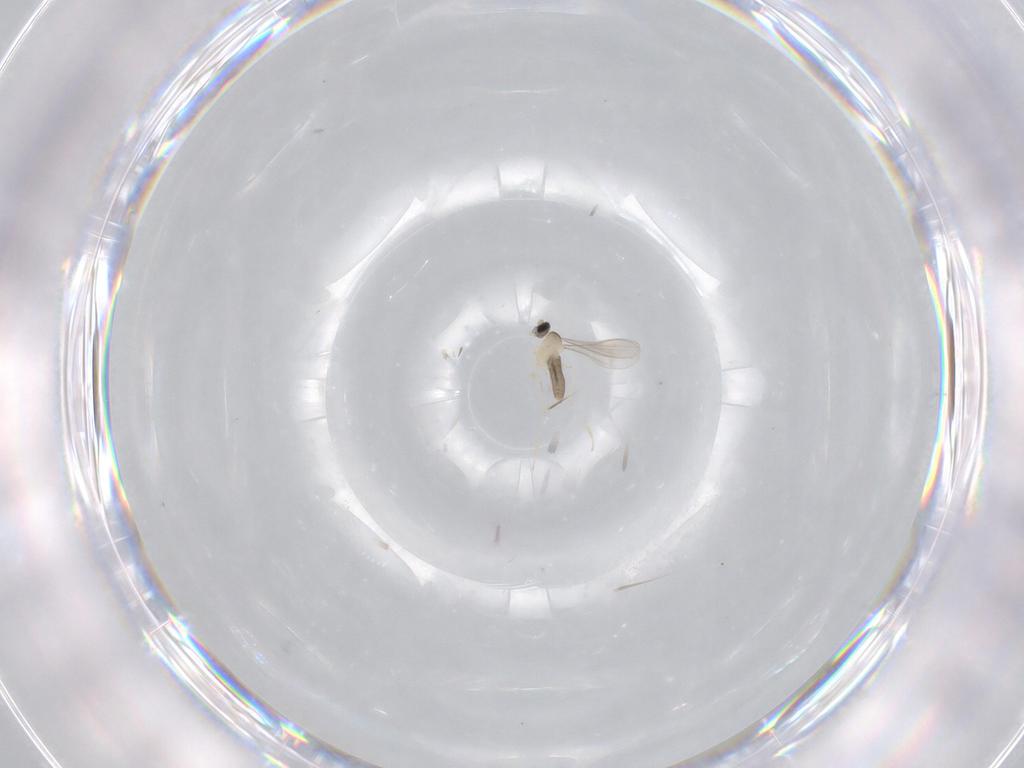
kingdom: Animalia
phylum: Arthropoda
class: Insecta
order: Diptera
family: Cecidomyiidae
